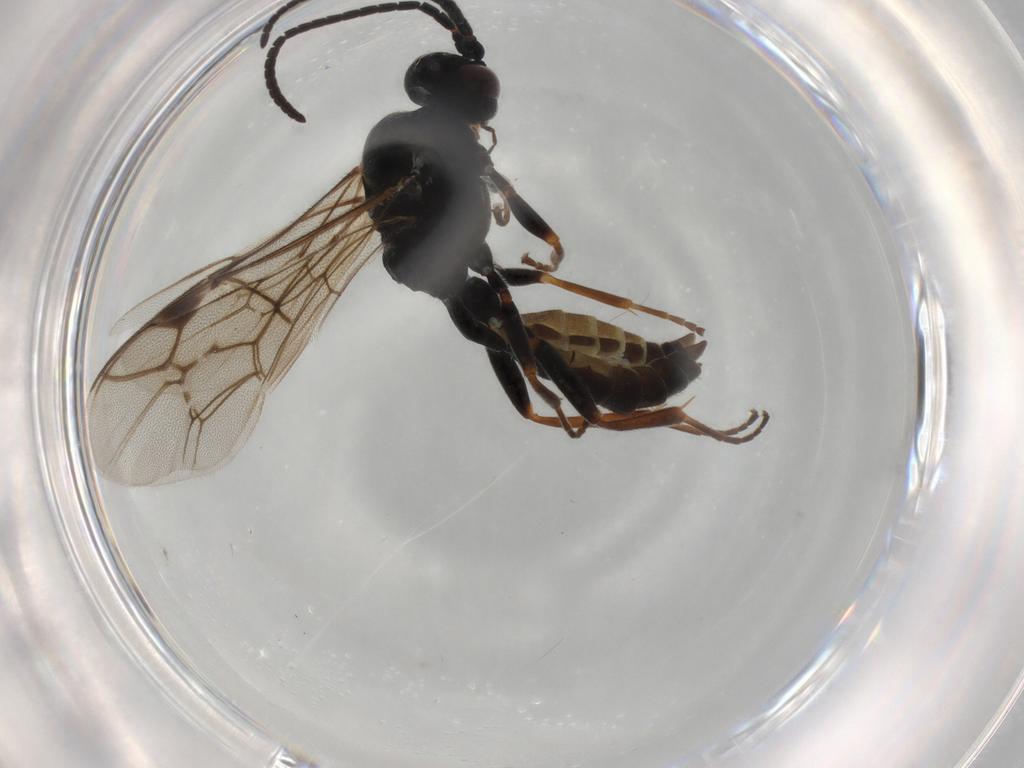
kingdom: Animalia
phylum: Arthropoda
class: Insecta
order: Hymenoptera
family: Ichneumonidae
